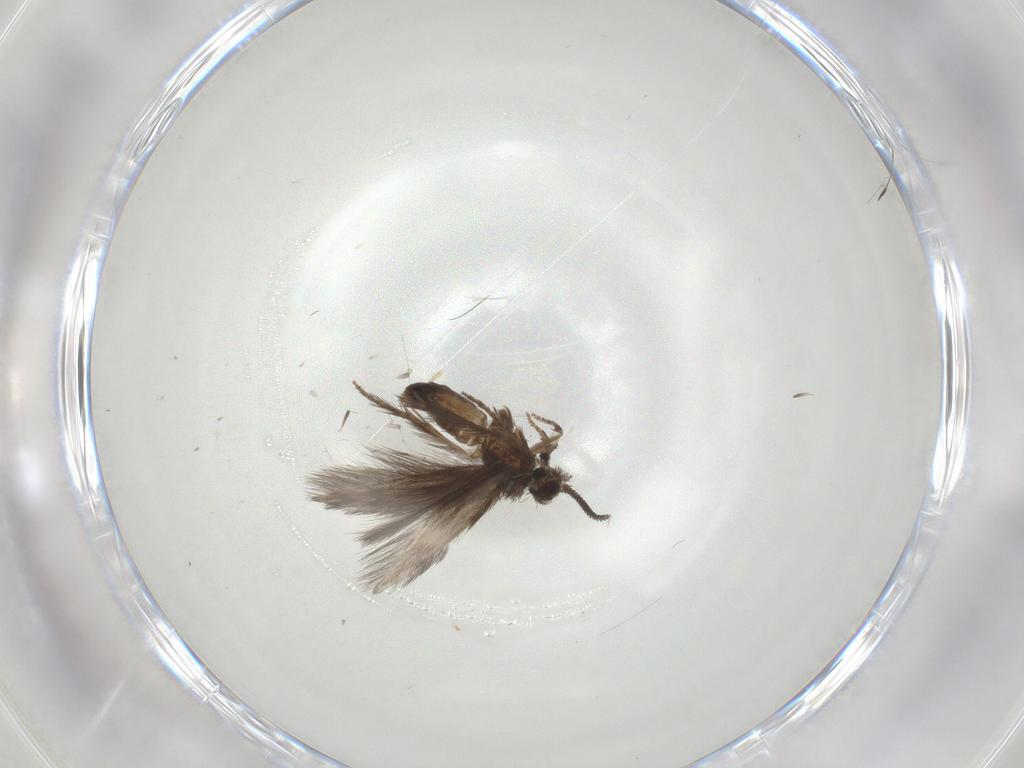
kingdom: Animalia
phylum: Arthropoda
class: Insecta
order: Trichoptera
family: Hydroptilidae
